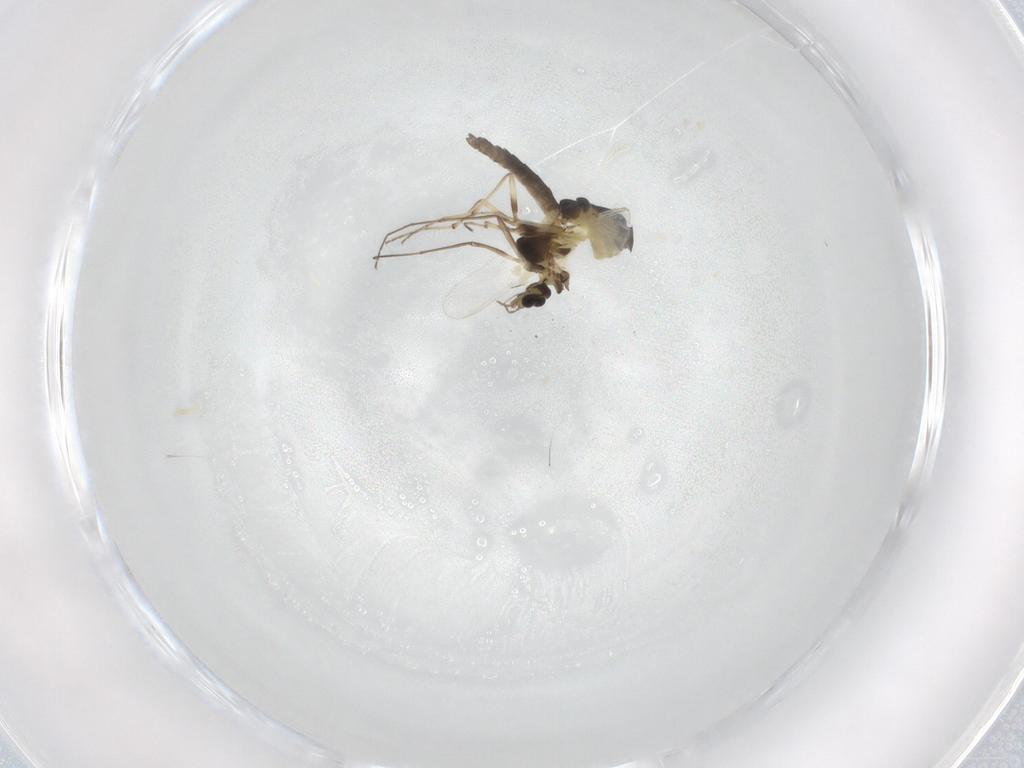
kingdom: Animalia
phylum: Arthropoda
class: Insecta
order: Diptera
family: Chironomidae
